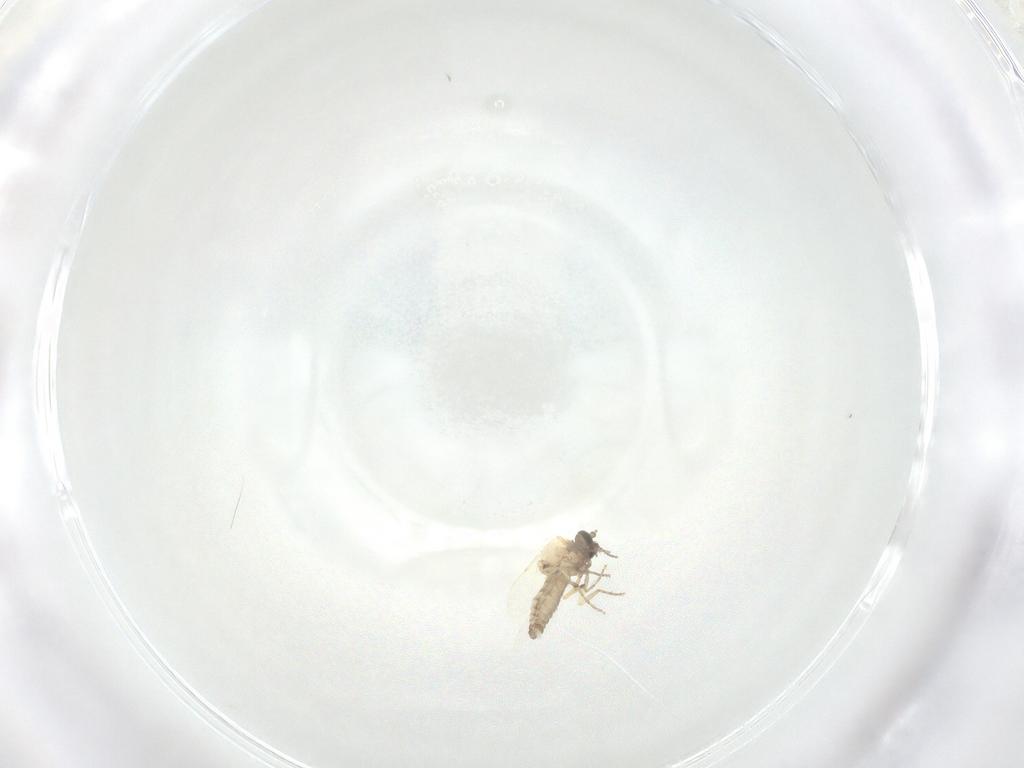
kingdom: Animalia
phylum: Arthropoda
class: Insecta
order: Diptera
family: Ceratopogonidae
